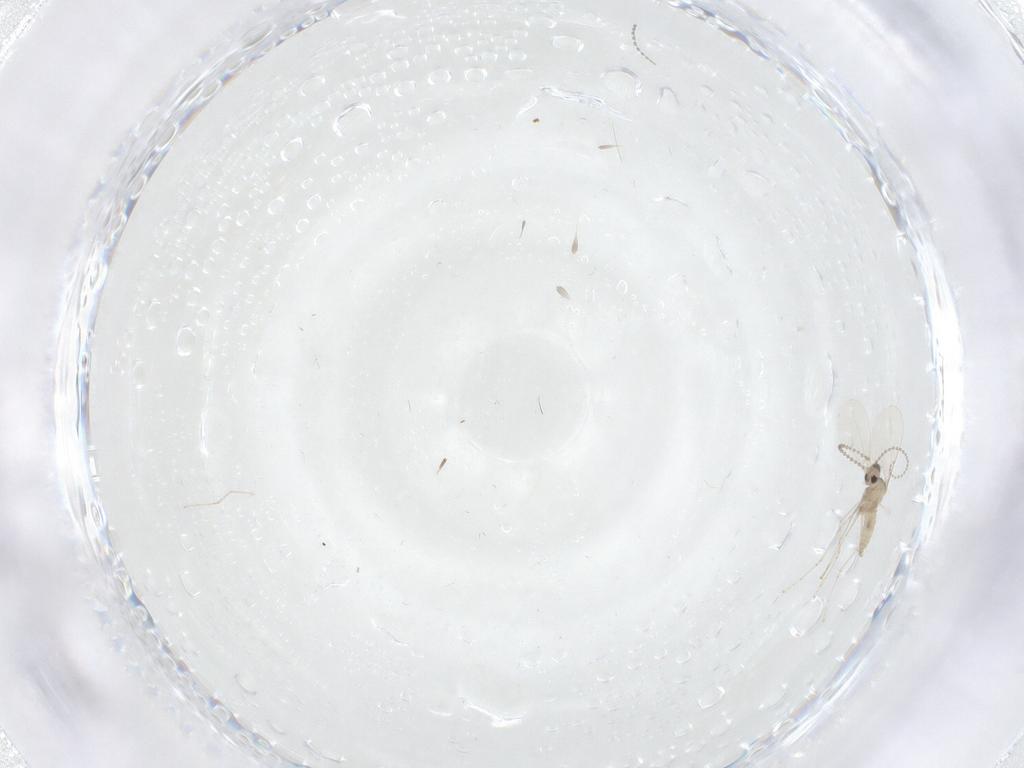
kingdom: Animalia
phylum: Arthropoda
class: Insecta
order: Diptera
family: Cecidomyiidae
